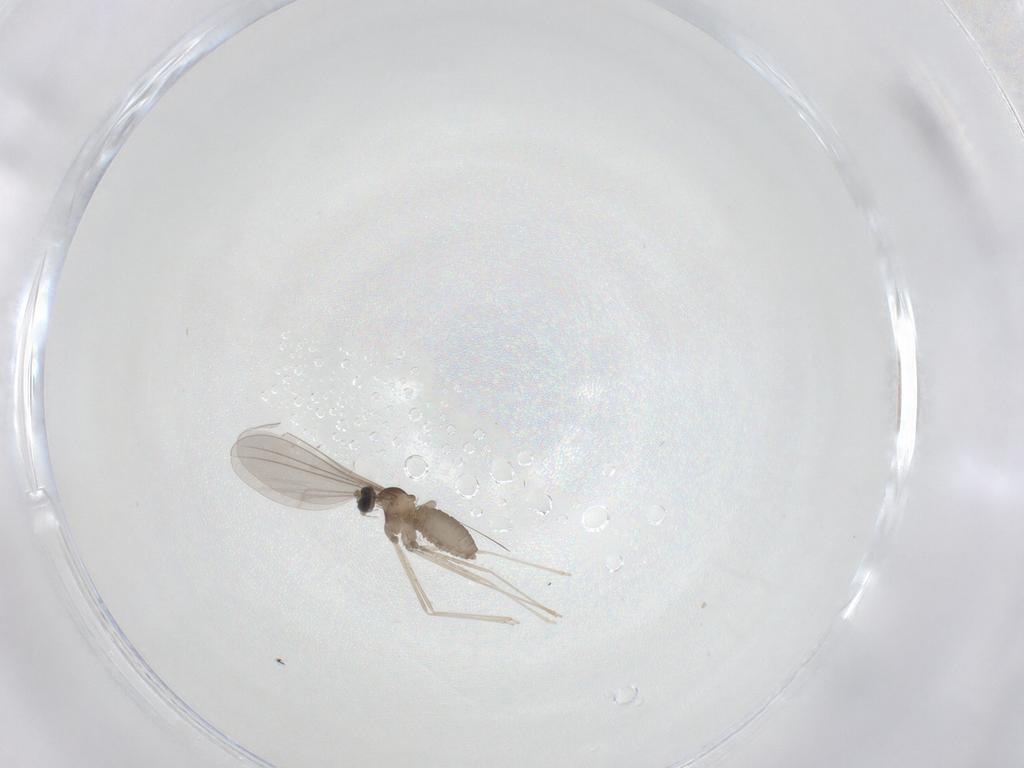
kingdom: Animalia
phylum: Arthropoda
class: Insecta
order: Diptera
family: Cecidomyiidae
